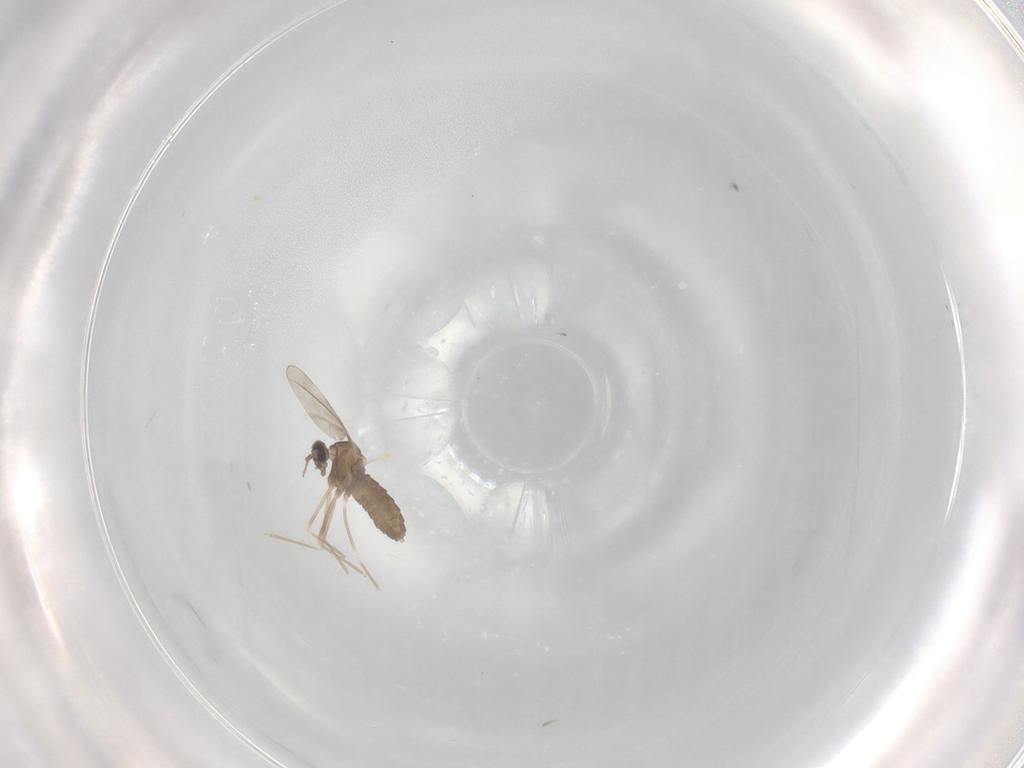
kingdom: Animalia
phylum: Arthropoda
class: Insecta
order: Diptera
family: Cecidomyiidae
